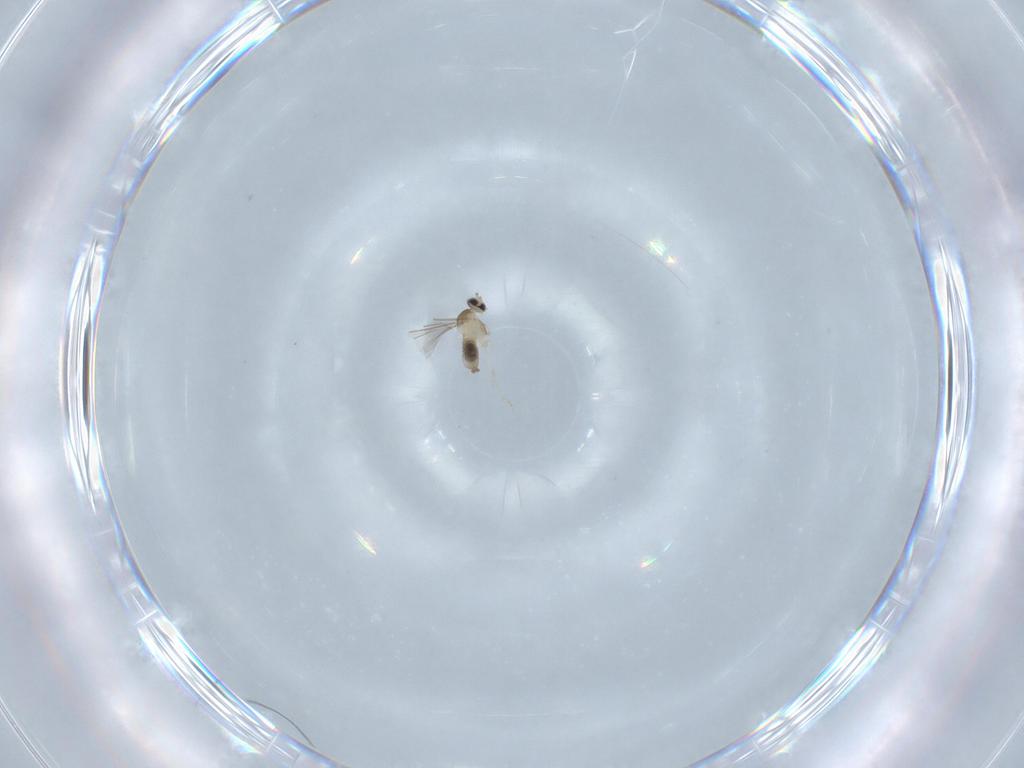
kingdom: Animalia
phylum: Arthropoda
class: Insecta
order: Diptera
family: Cecidomyiidae
